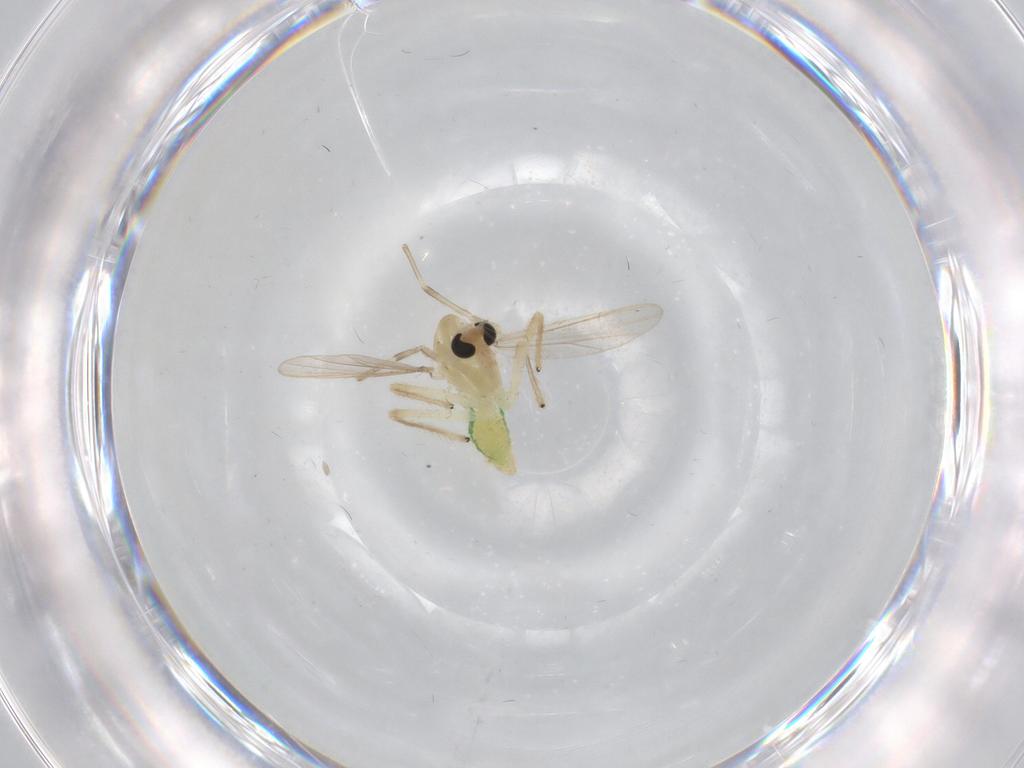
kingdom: Animalia
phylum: Arthropoda
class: Insecta
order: Diptera
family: Chironomidae
